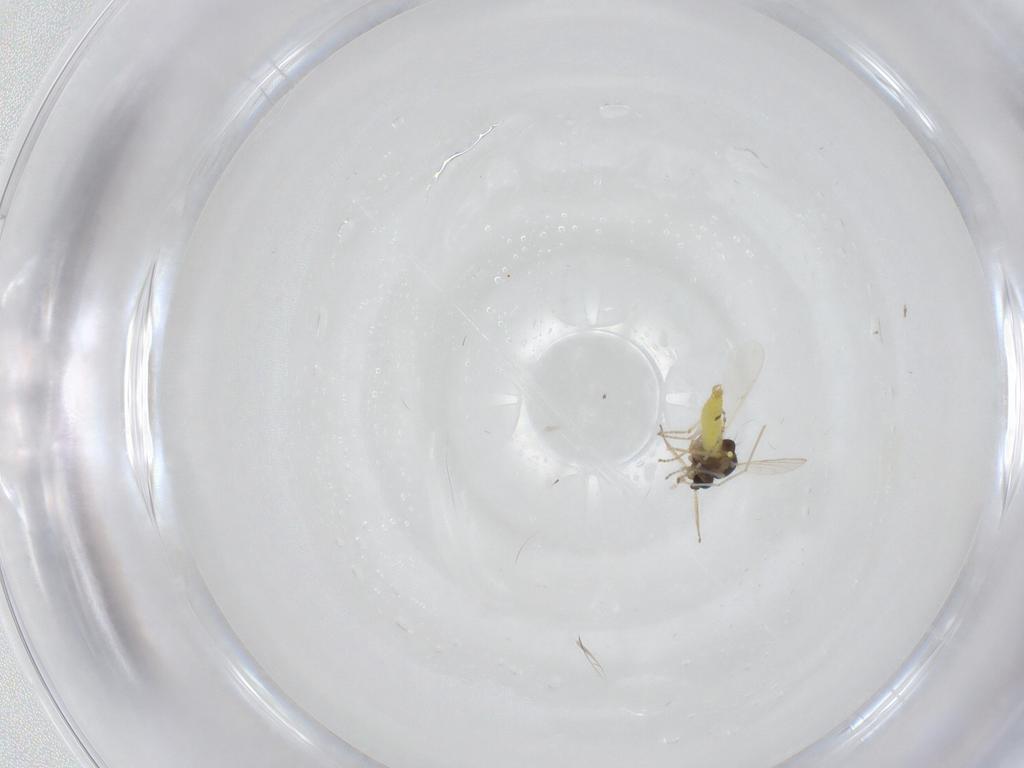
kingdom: Animalia
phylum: Arthropoda
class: Insecta
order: Diptera
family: Ceratopogonidae
